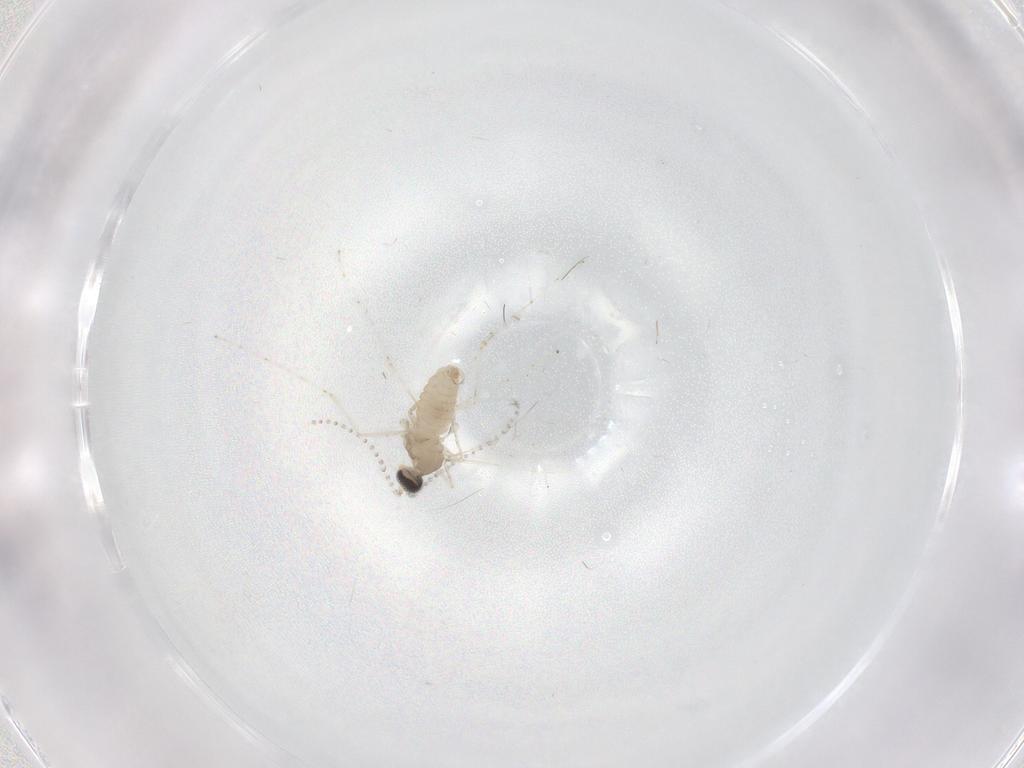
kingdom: Animalia
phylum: Arthropoda
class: Insecta
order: Diptera
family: Cecidomyiidae
